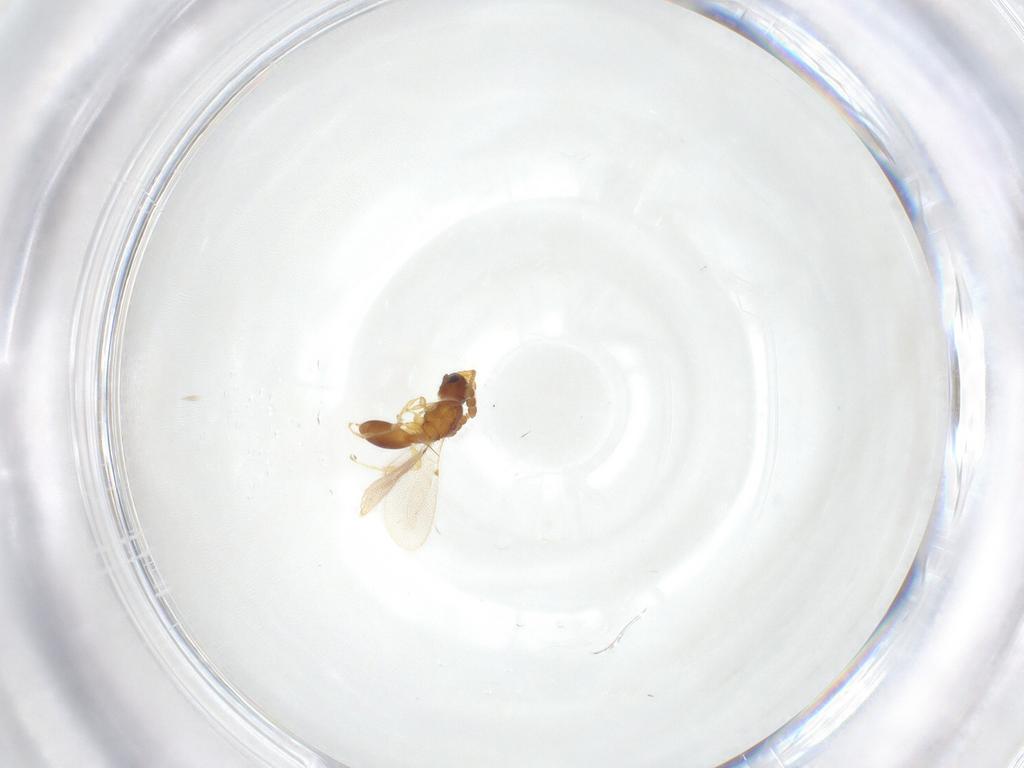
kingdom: Animalia
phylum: Arthropoda
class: Insecta
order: Hymenoptera
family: Diapriidae
